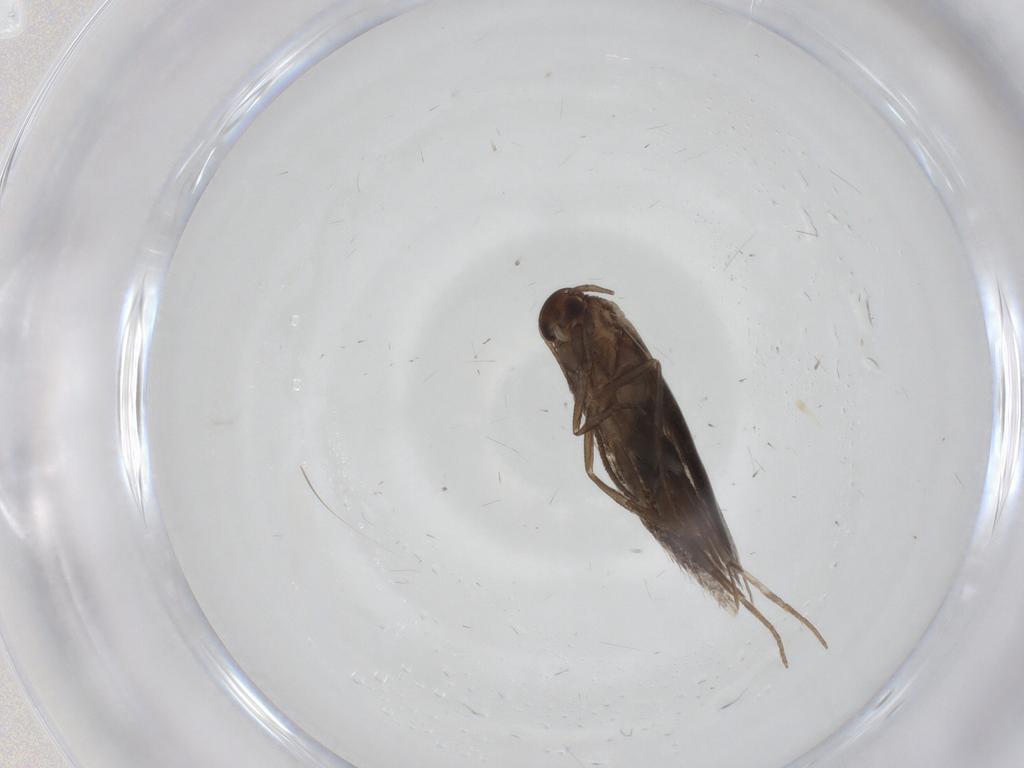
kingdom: Animalia
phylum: Arthropoda
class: Insecta
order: Lepidoptera
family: Elachistidae
